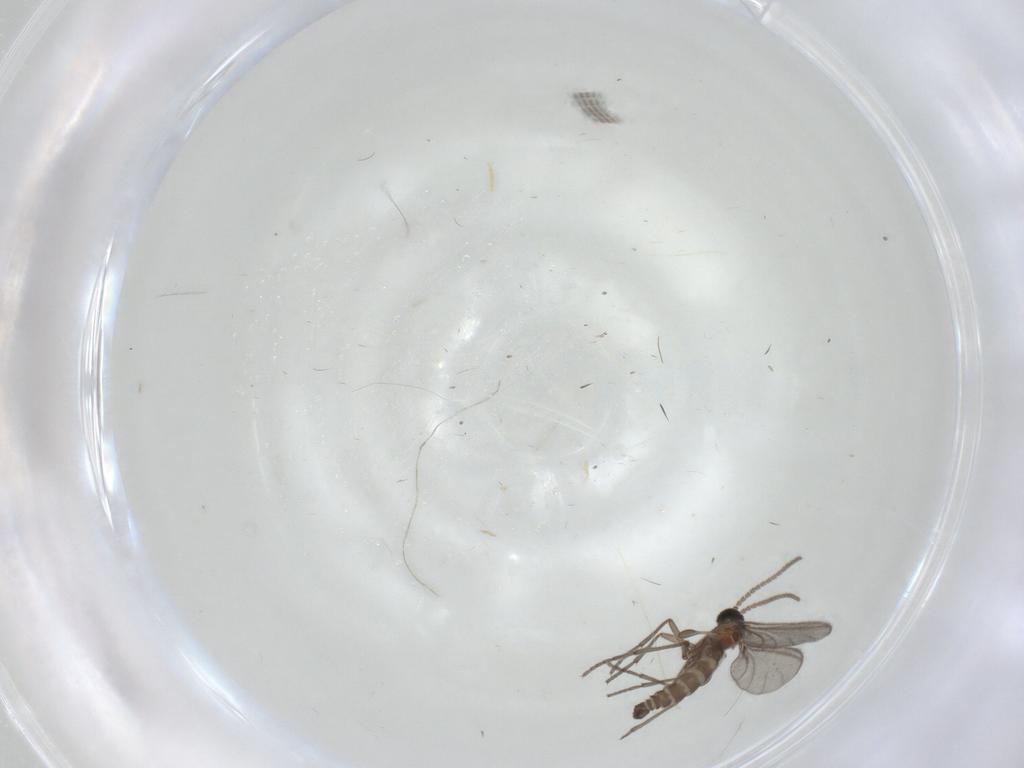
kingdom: Animalia
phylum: Arthropoda
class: Insecta
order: Diptera
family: Sciaridae
